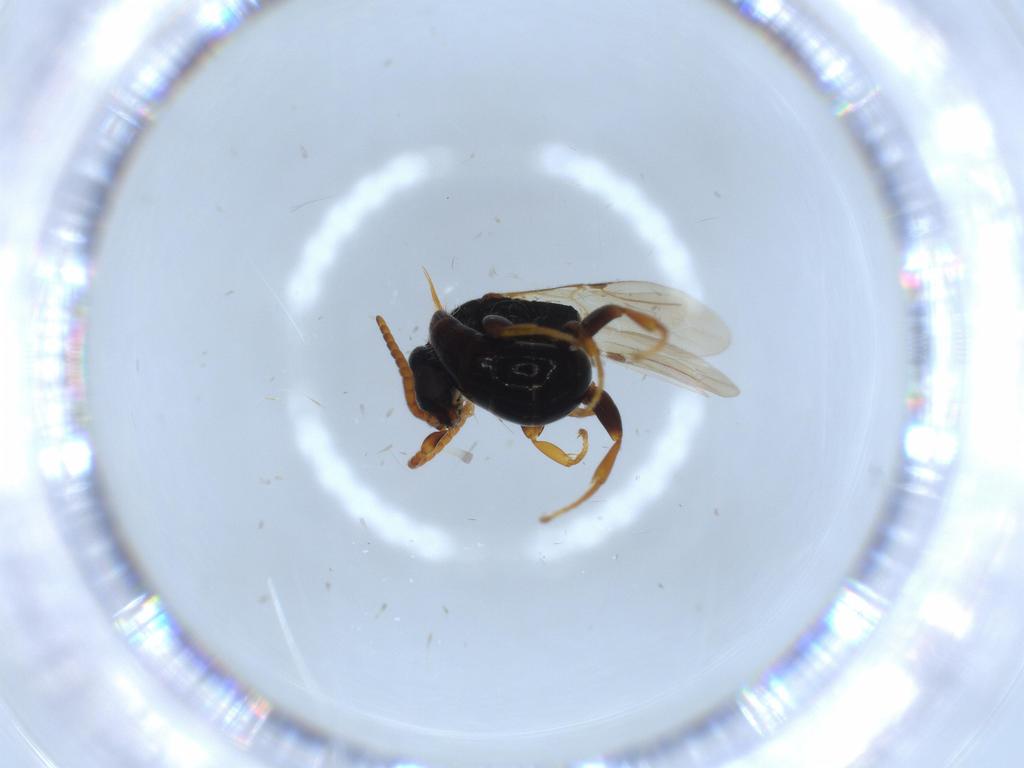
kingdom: Animalia
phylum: Arthropoda
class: Insecta
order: Hymenoptera
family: Bethylidae
